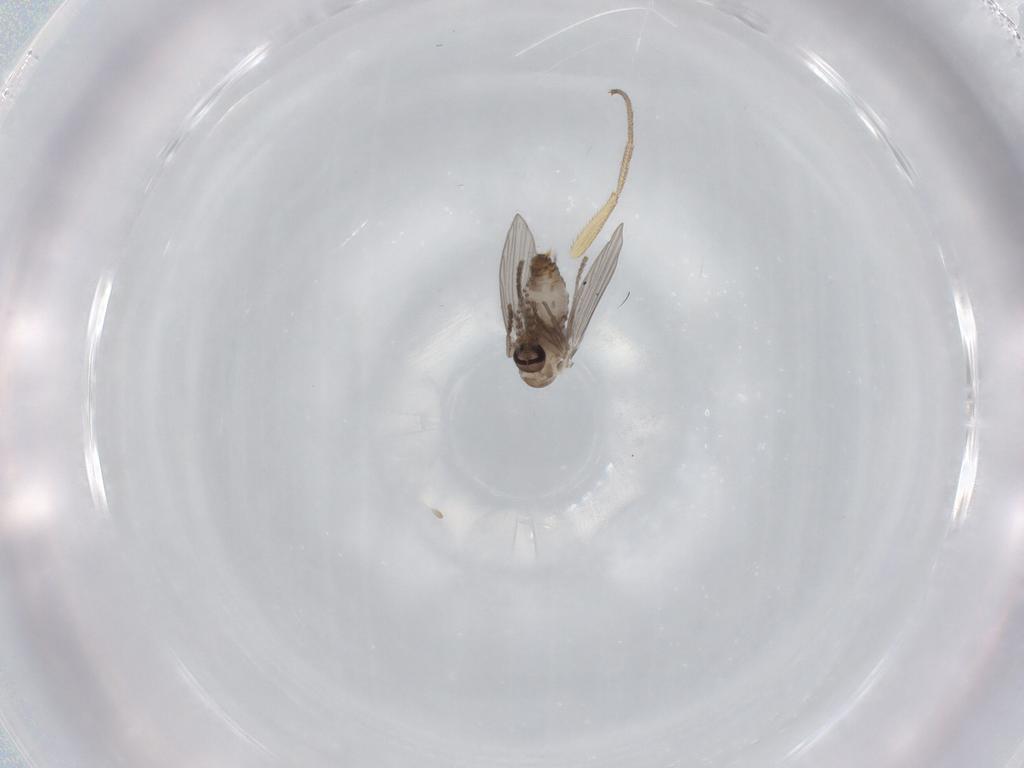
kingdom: Animalia
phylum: Arthropoda
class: Insecta
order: Diptera
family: Psychodidae
